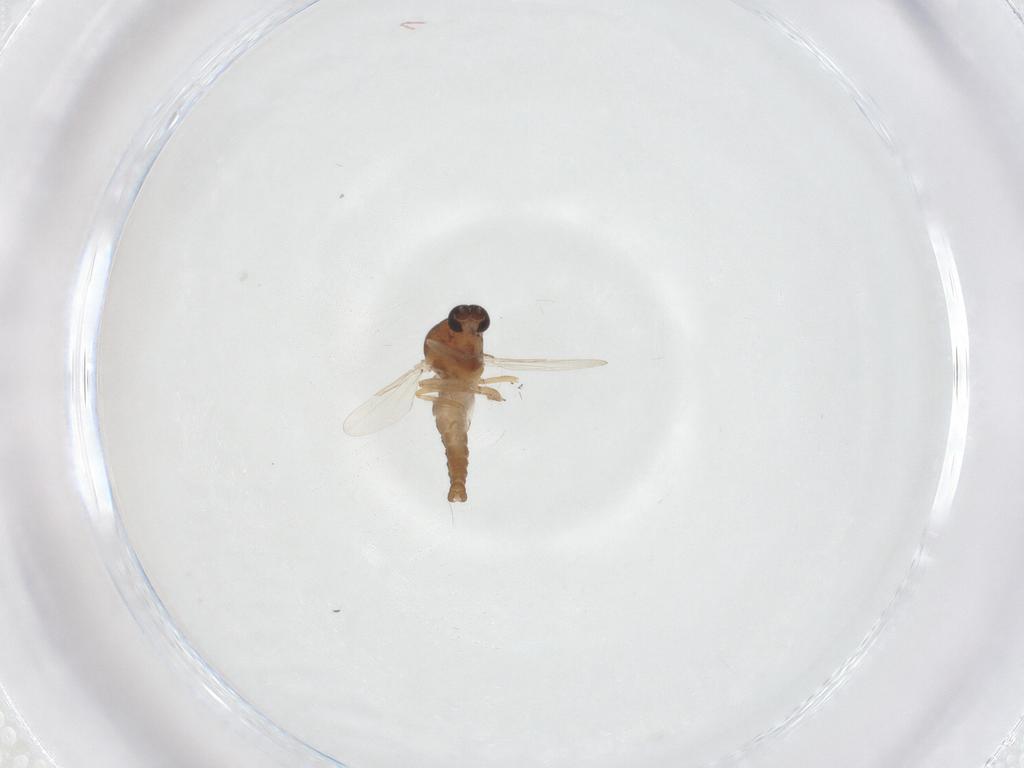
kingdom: Animalia
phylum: Arthropoda
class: Insecta
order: Diptera
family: Ceratopogonidae
